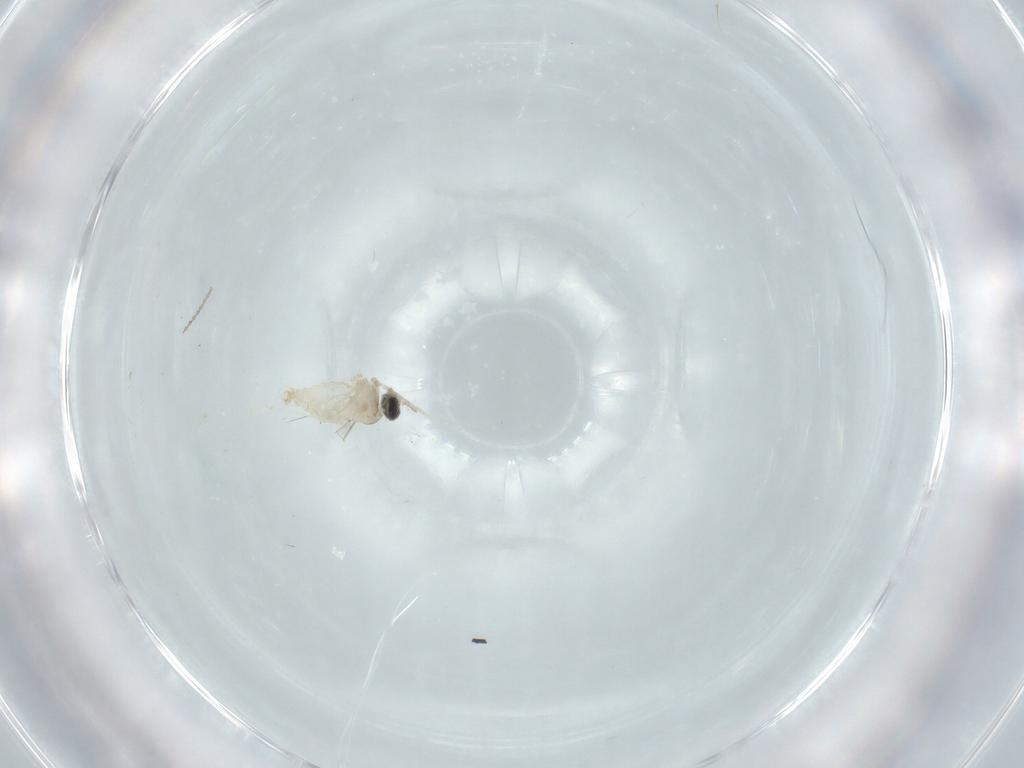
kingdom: Animalia
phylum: Arthropoda
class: Insecta
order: Diptera
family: Cecidomyiidae
